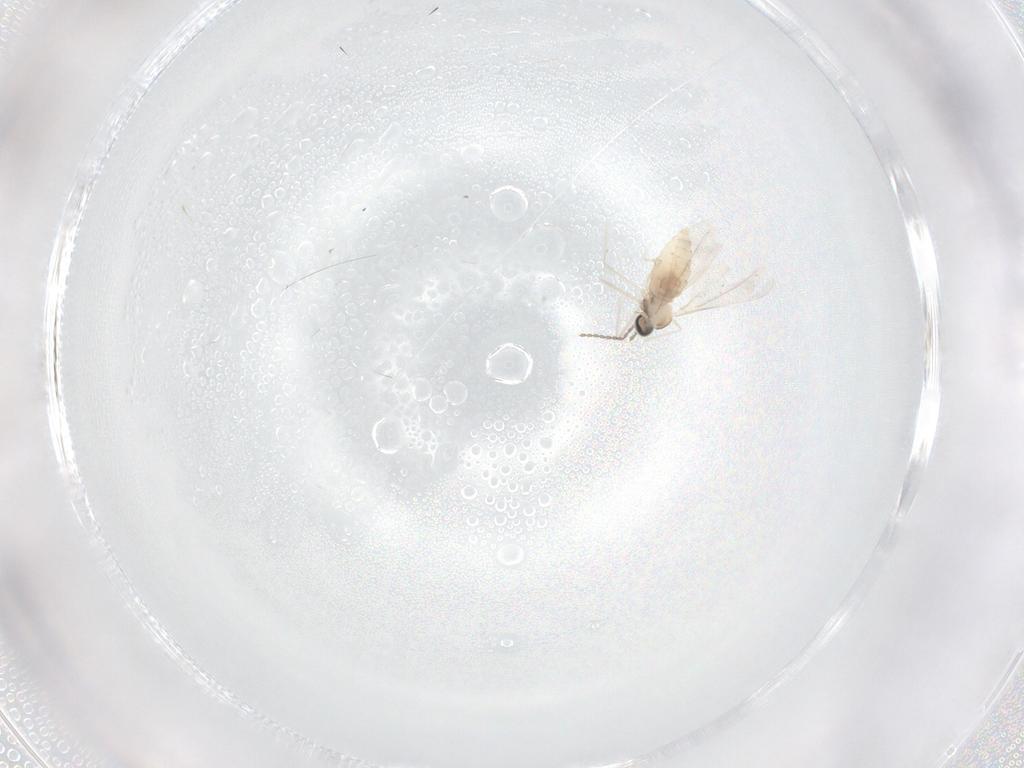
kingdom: Animalia
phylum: Arthropoda
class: Insecta
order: Diptera
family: Cecidomyiidae
